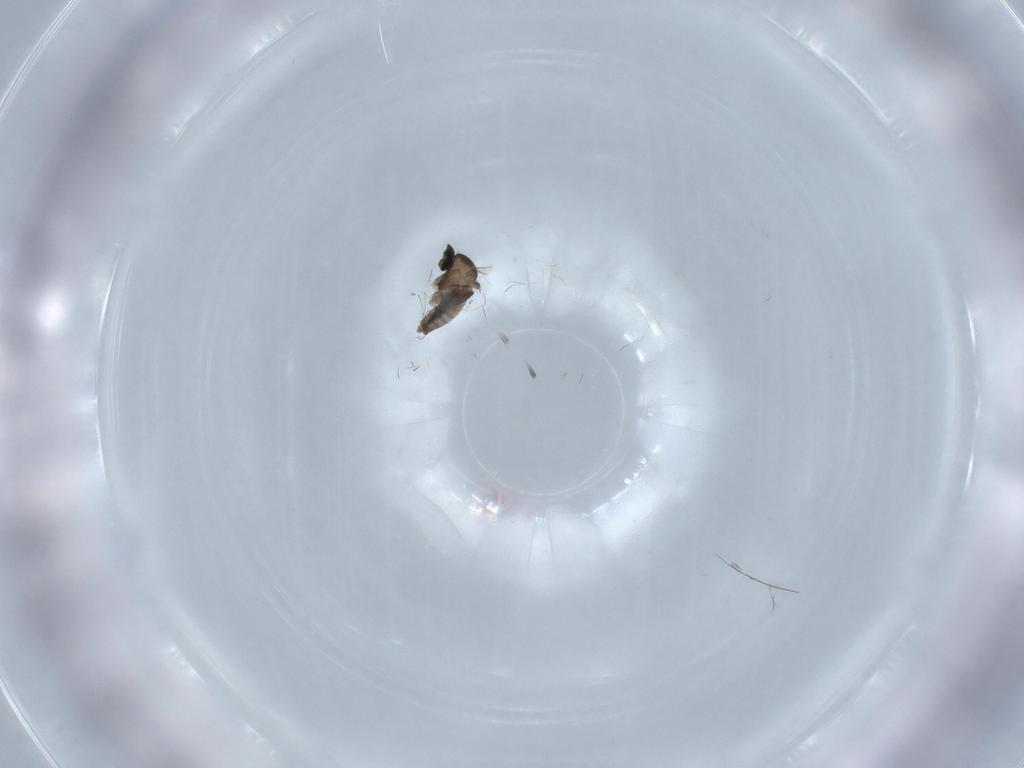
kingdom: Animalia
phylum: Arthropoda
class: Insecta
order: Diptera
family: Cecidomyiidae
